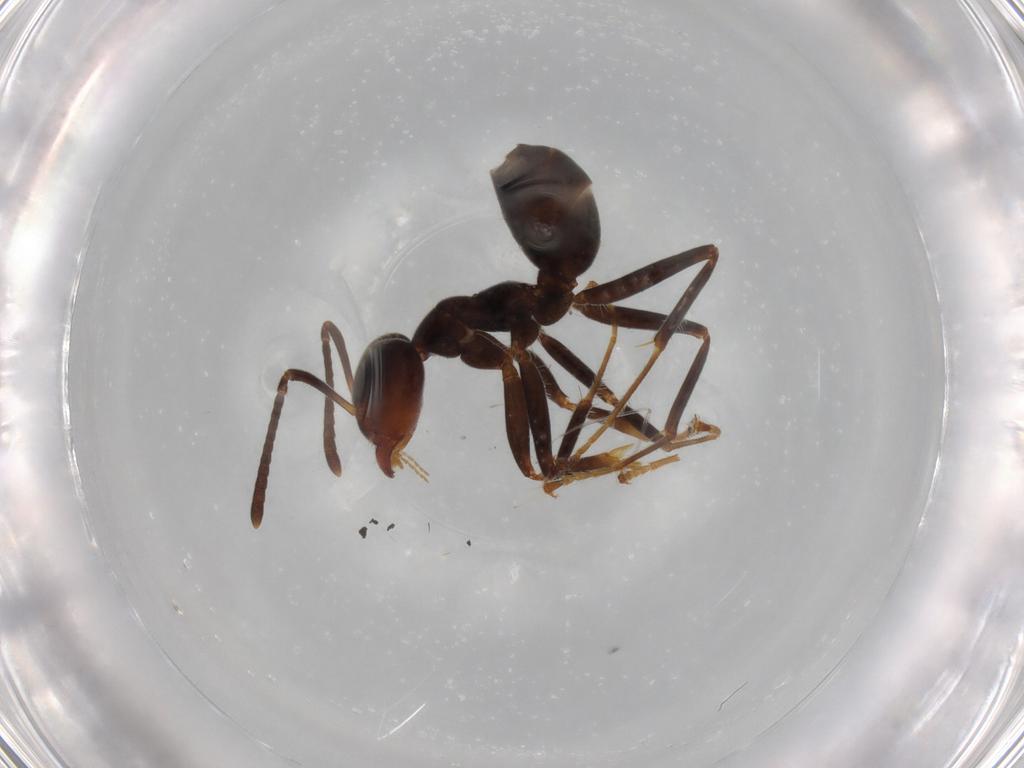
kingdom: Animalia
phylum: Arthropoda
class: Insecta
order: Hymenoptera
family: Formicidae
